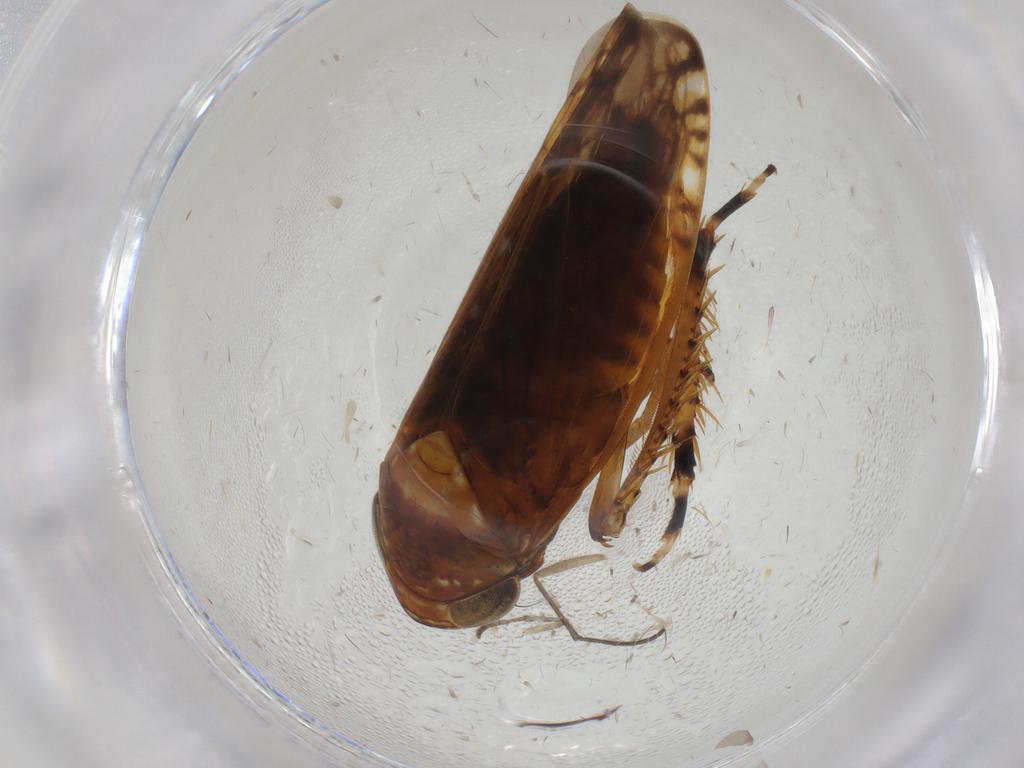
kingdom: Animalia
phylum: Arthropoda
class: Insecta
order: Hemiptera
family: Cicadellidae
